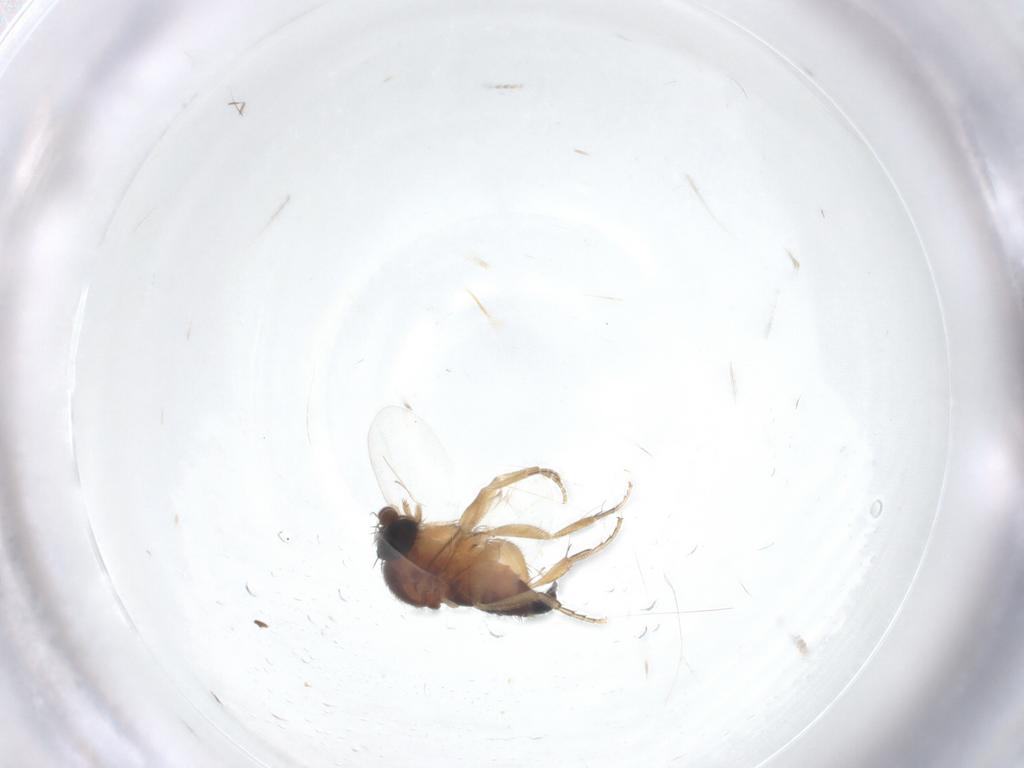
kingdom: Animalia
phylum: Arthropoda
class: Insecta
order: Diptera
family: Phoridae
